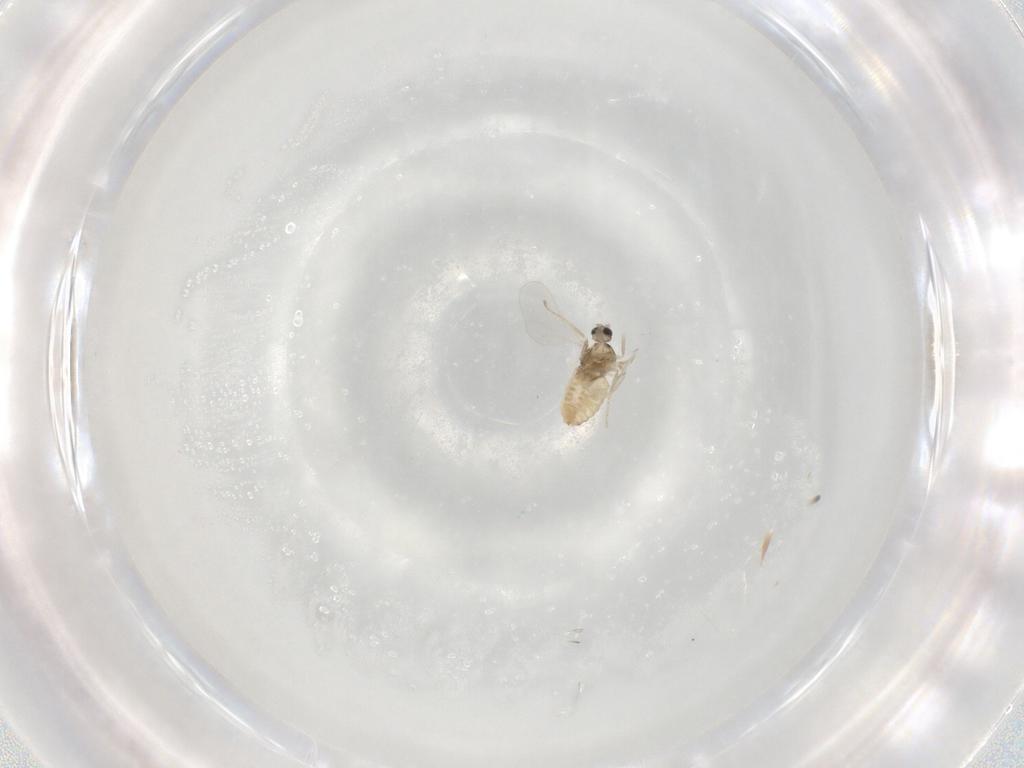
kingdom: Animalia
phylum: Arthropoda
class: Insecta
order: Diptera
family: Cecidomyiidae
